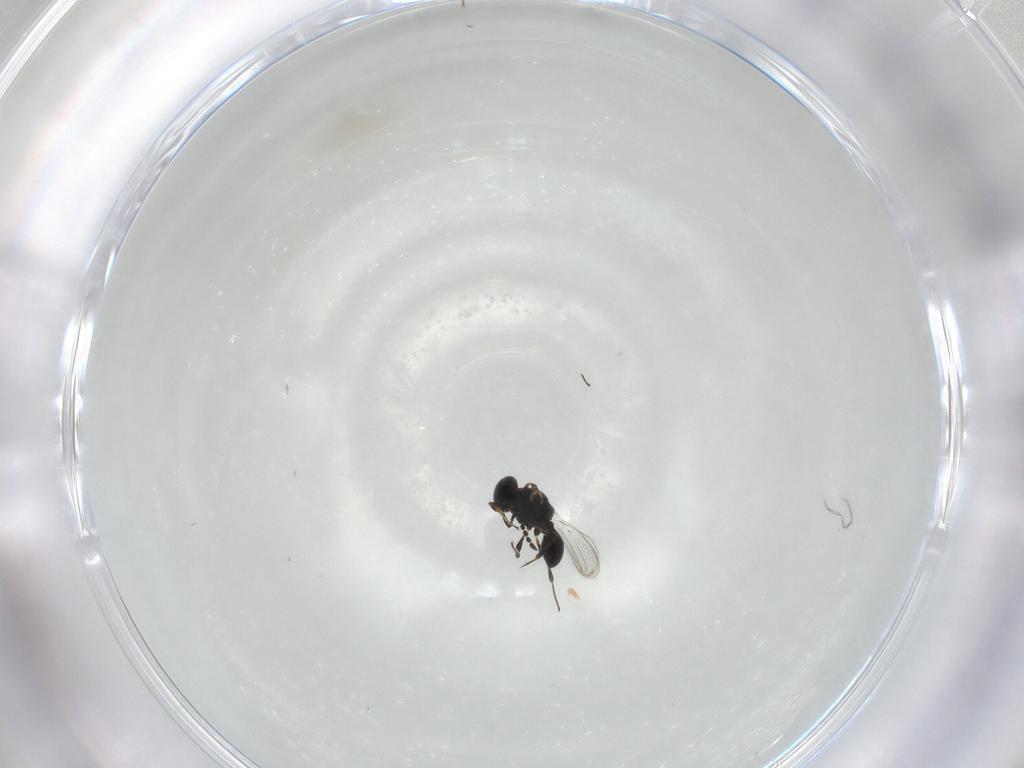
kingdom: Animalia
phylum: Arthropoda
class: Insecta
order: Hymenoptera
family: Platygastridae
